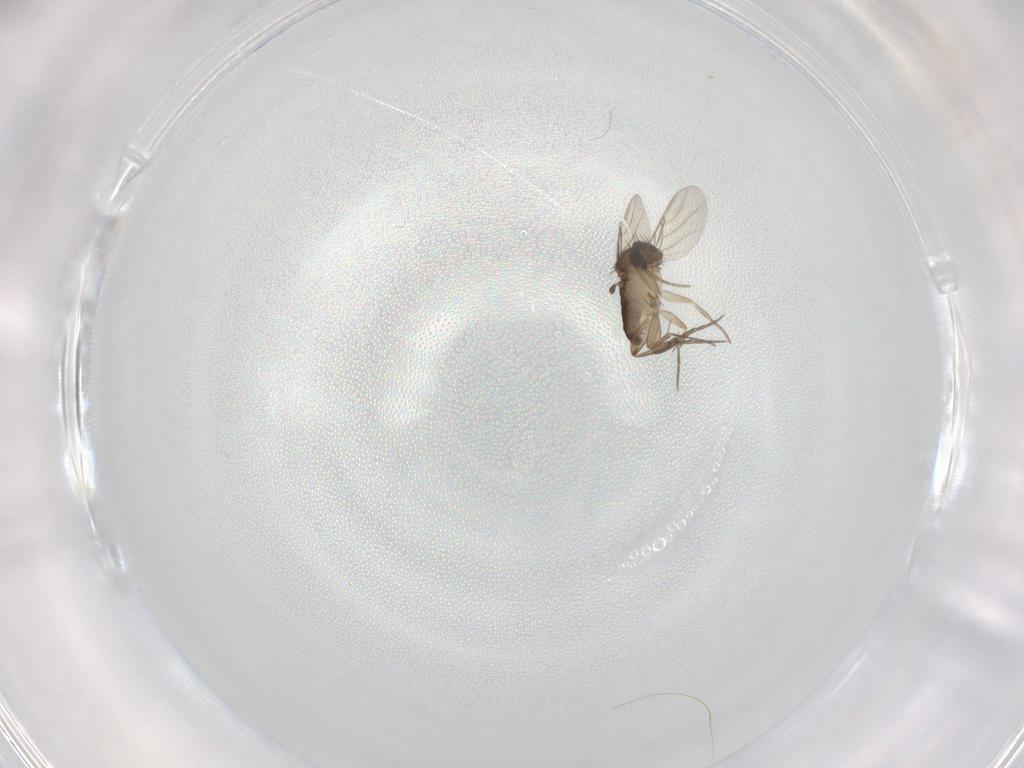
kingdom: Animalia
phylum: Arthropoda
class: Insecta
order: Diptera
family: Phoridae
